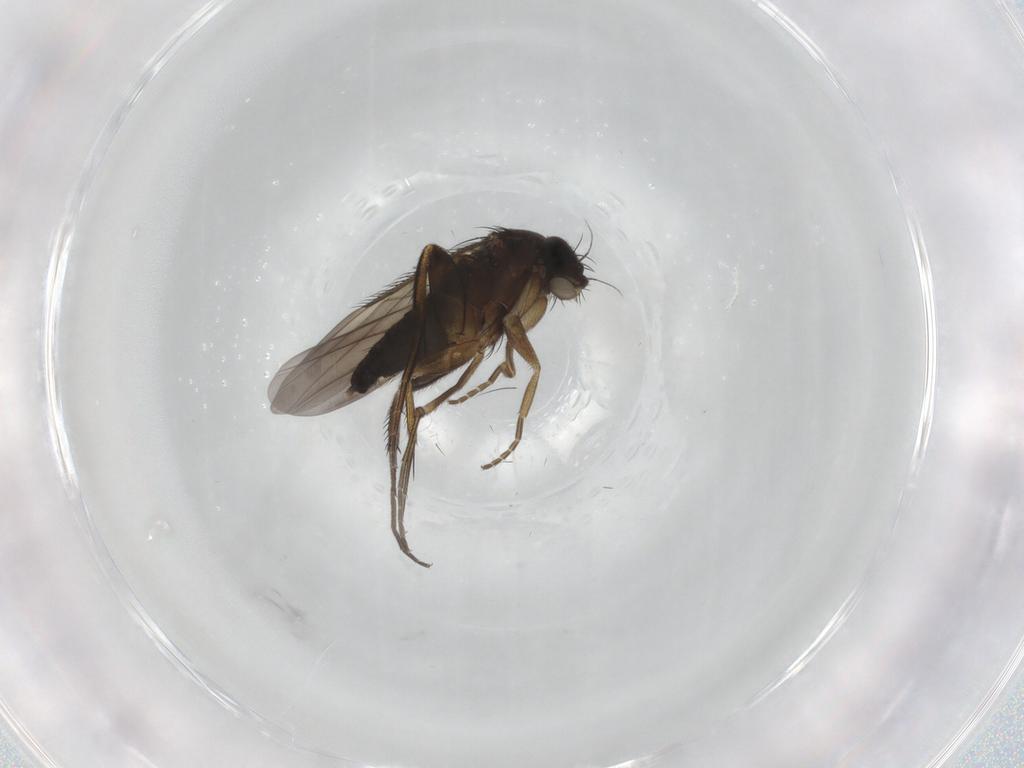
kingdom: Animalia
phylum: Arthropoda
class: Insecta
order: Diptera
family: Phoridae
